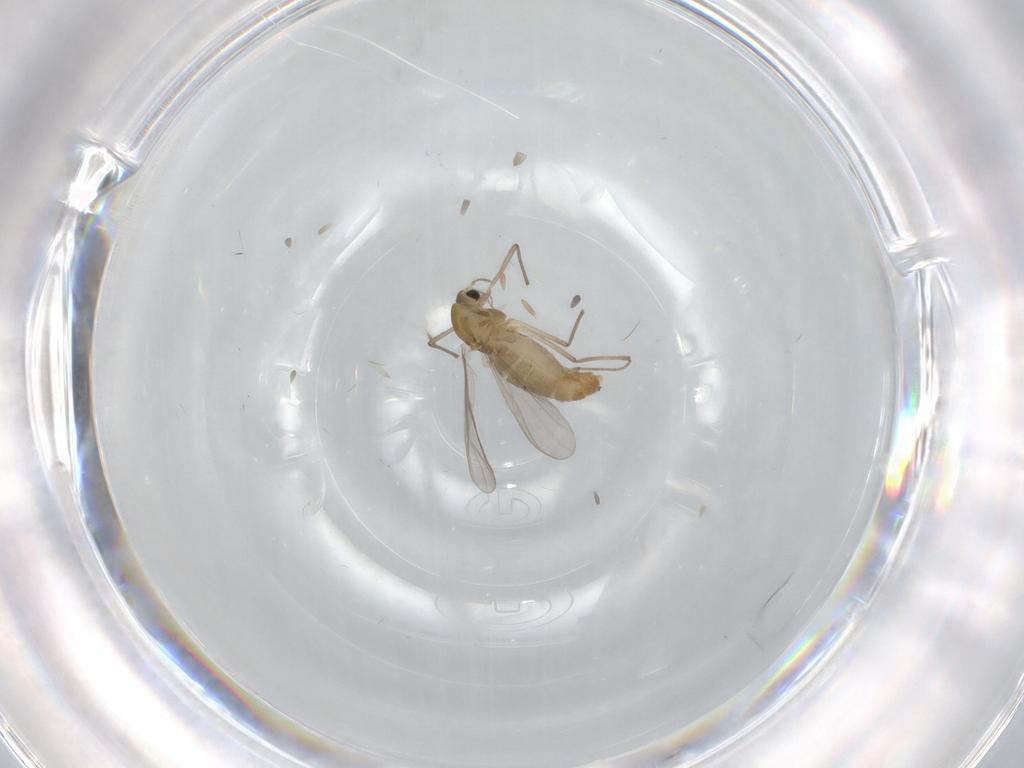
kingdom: Animalia
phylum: Arthropoda
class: Insecta
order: Diptera
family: Chironomidae
